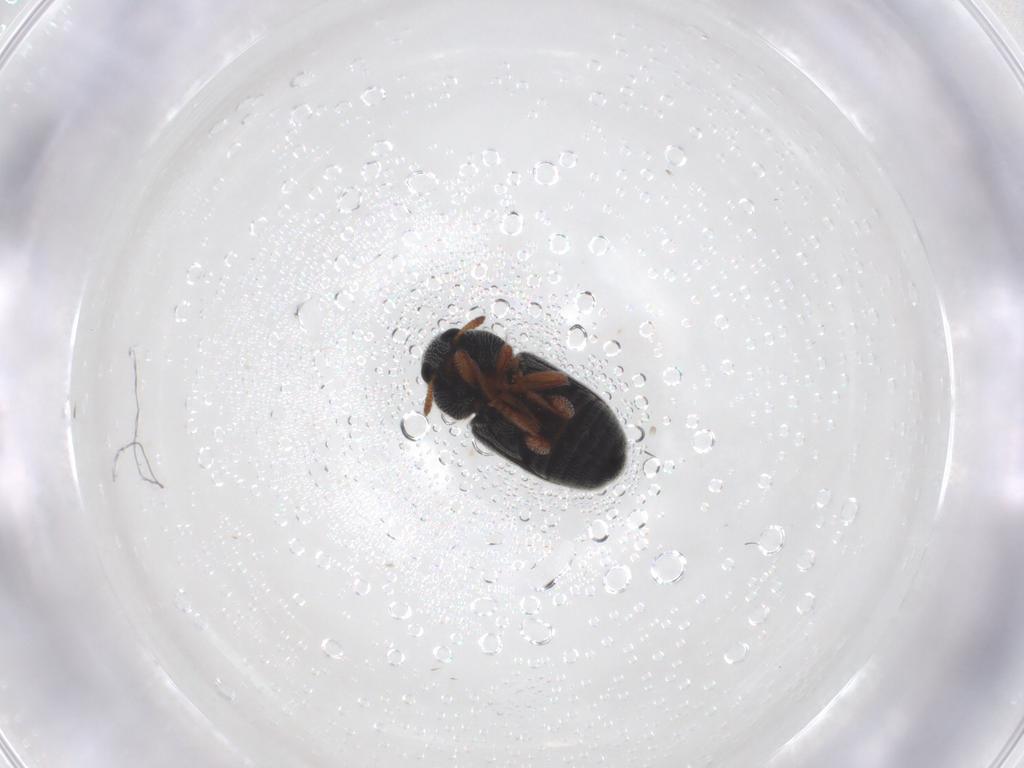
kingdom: Animalia
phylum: Arthropoda
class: Insecta
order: Coleoptera
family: Anthribidae
